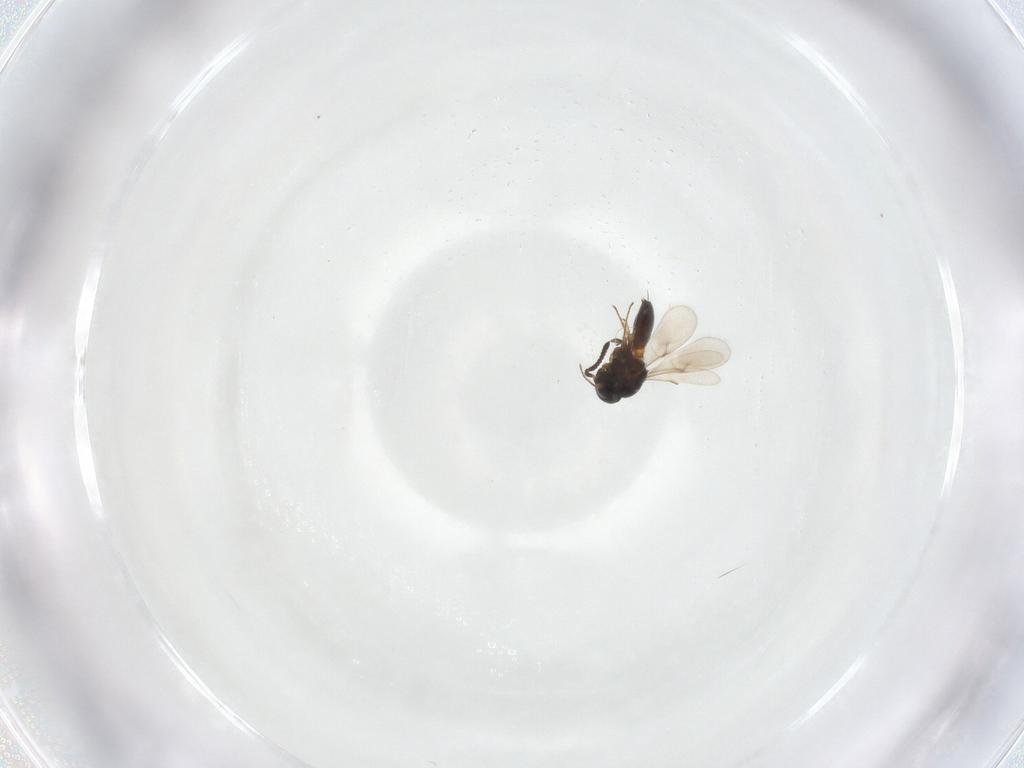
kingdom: Animalia
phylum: Arthropoda
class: Insecta
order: Hymenoptera
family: Scelionidae
